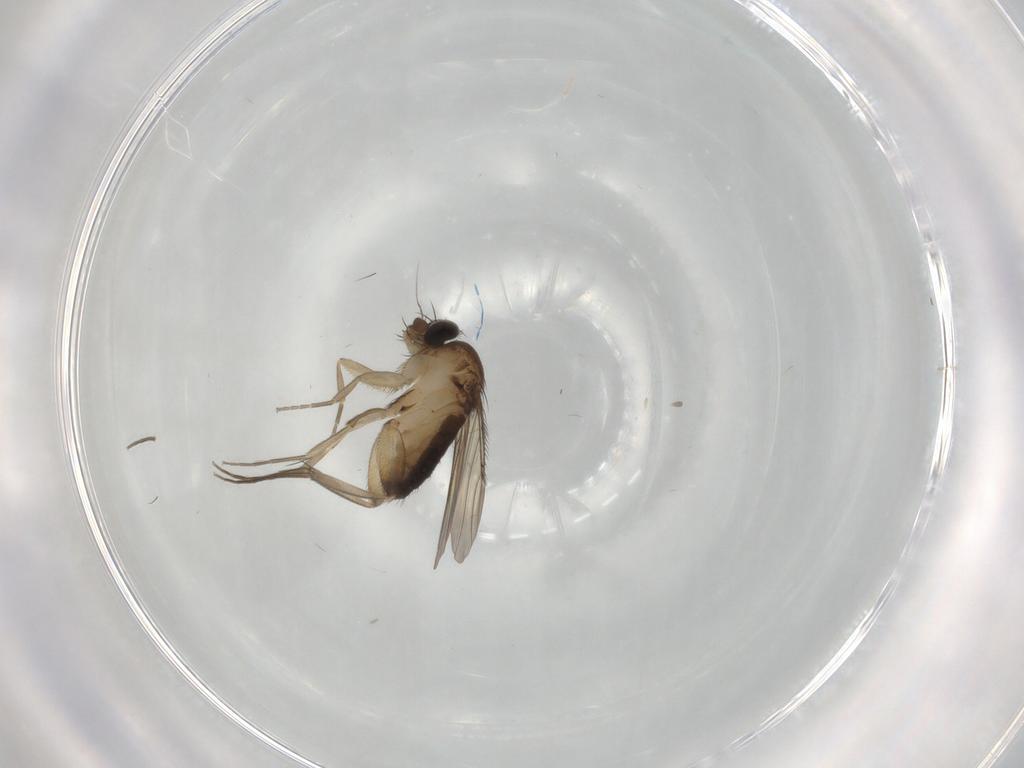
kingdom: Animalia
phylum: Arthropoda
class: Insecta
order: Diptera
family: Phoridae
